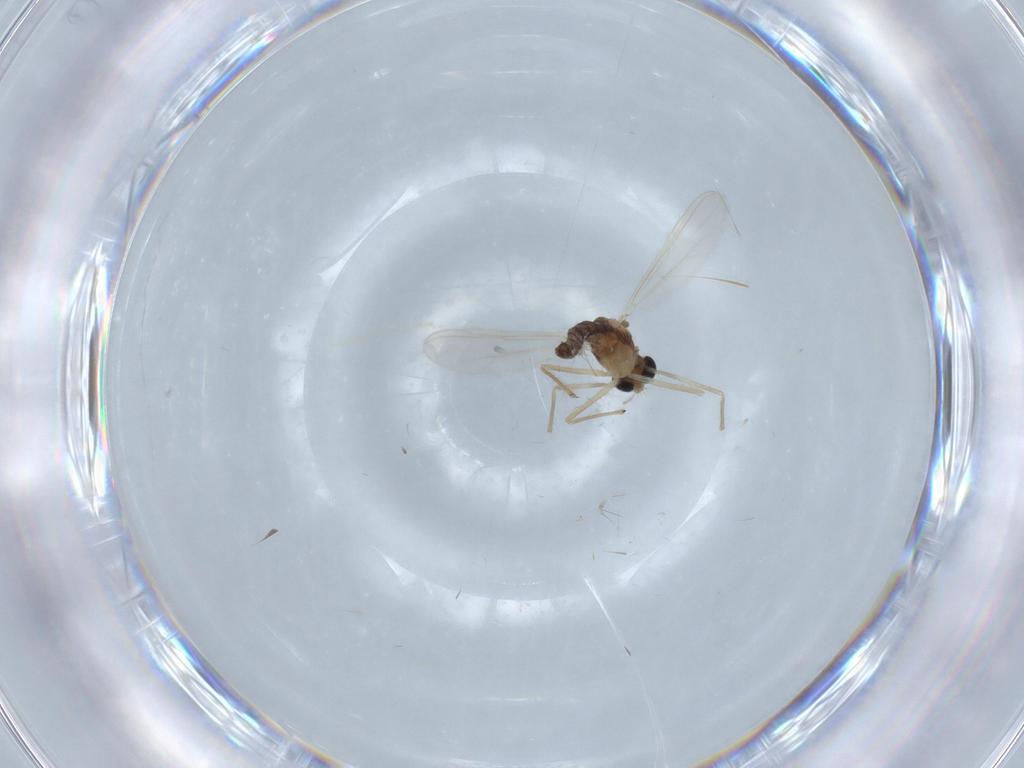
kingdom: Animalia
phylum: Arthropoda
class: Insecta
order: Diptera
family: Chironomidae
